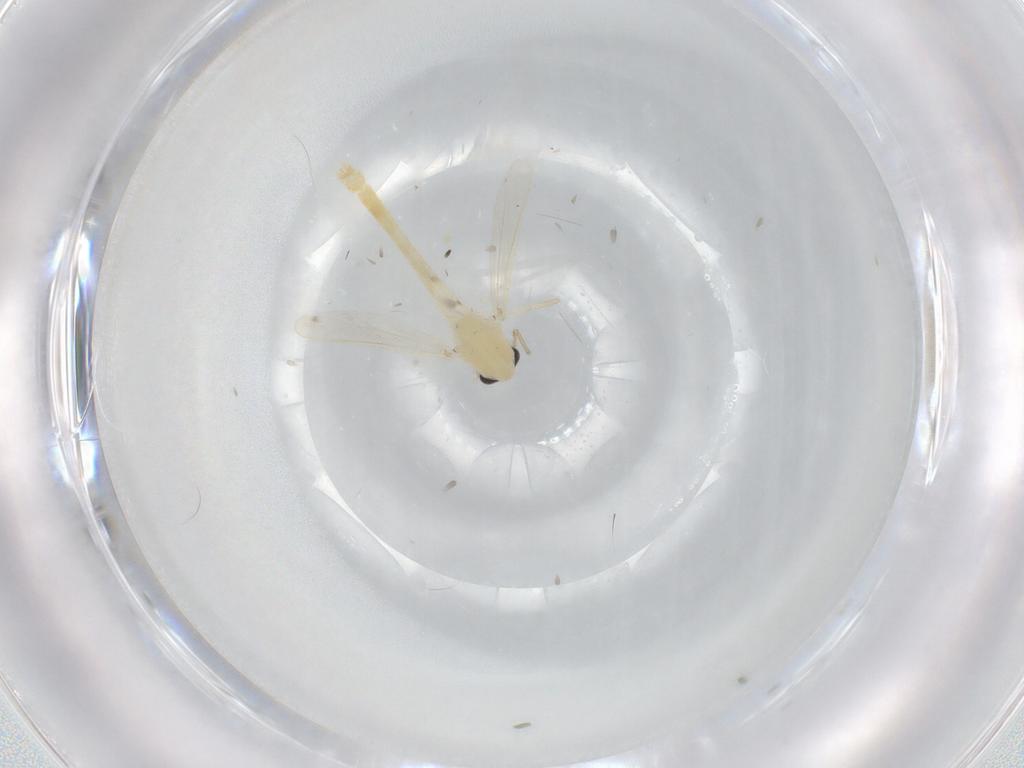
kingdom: Animalia
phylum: Arthropoda
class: Insecta
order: Diptera
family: Chironomidae
